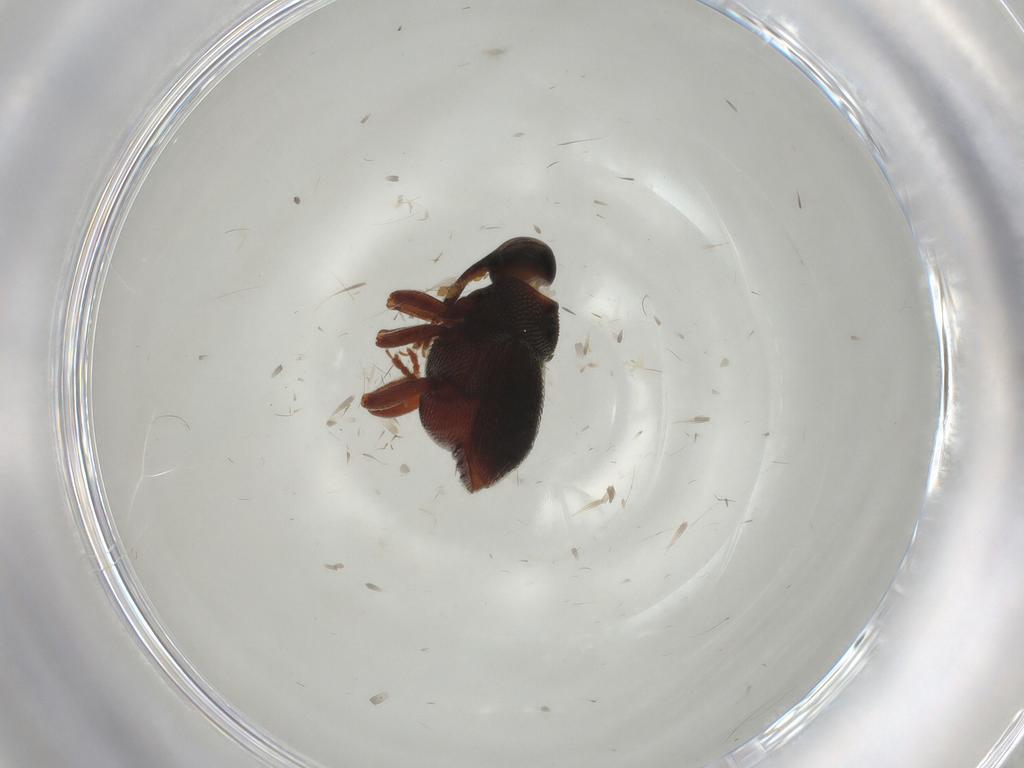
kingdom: Animalia
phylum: Arthropoda
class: Insecta
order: Coleoptera
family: Curculionidae
